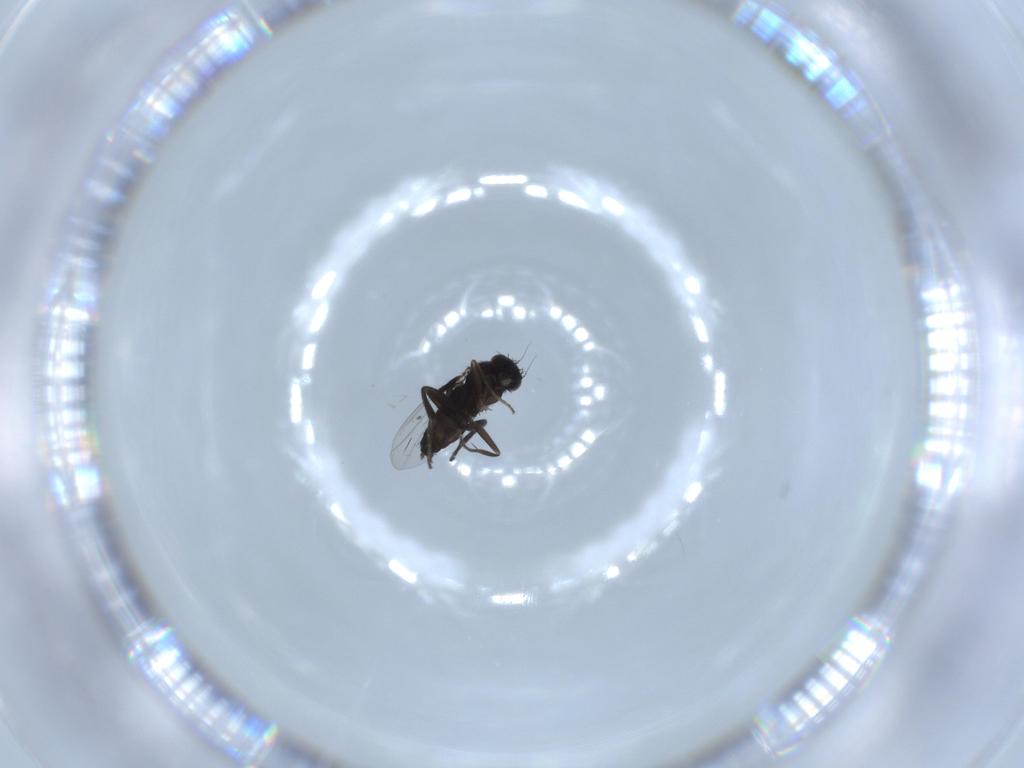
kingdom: Animalia
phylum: Arthropoda
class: Insecta
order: Diptera
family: Phoridae
